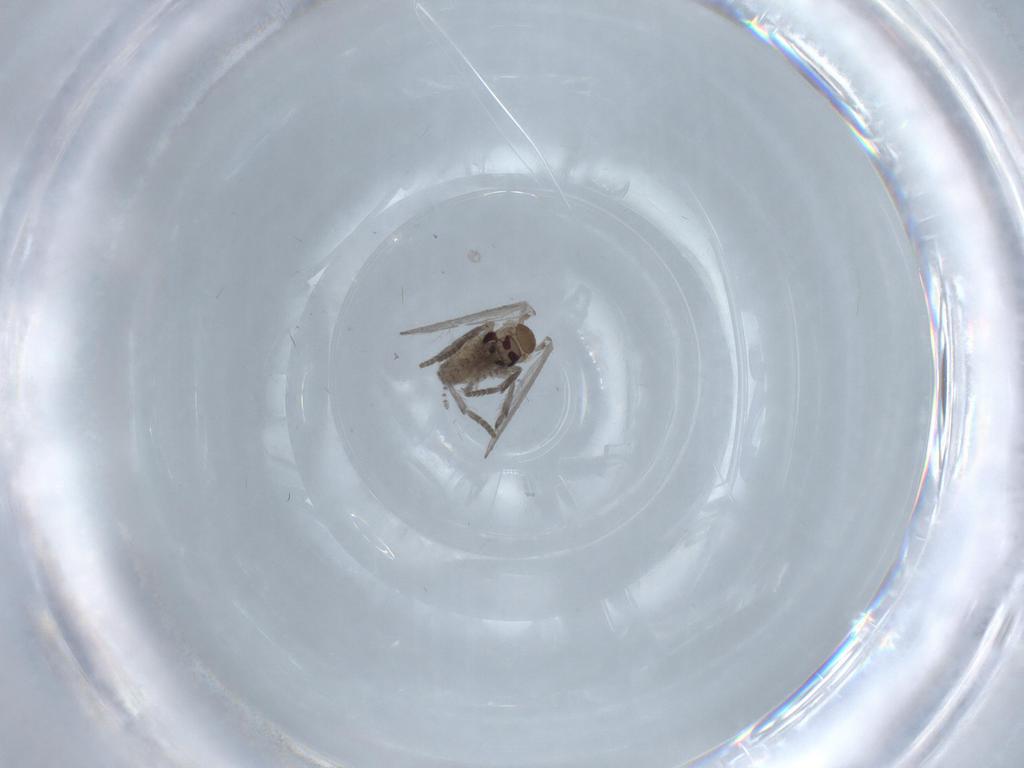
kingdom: Animalia
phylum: Arthropoda
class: Insecta
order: Diptera
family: Psychodidae
